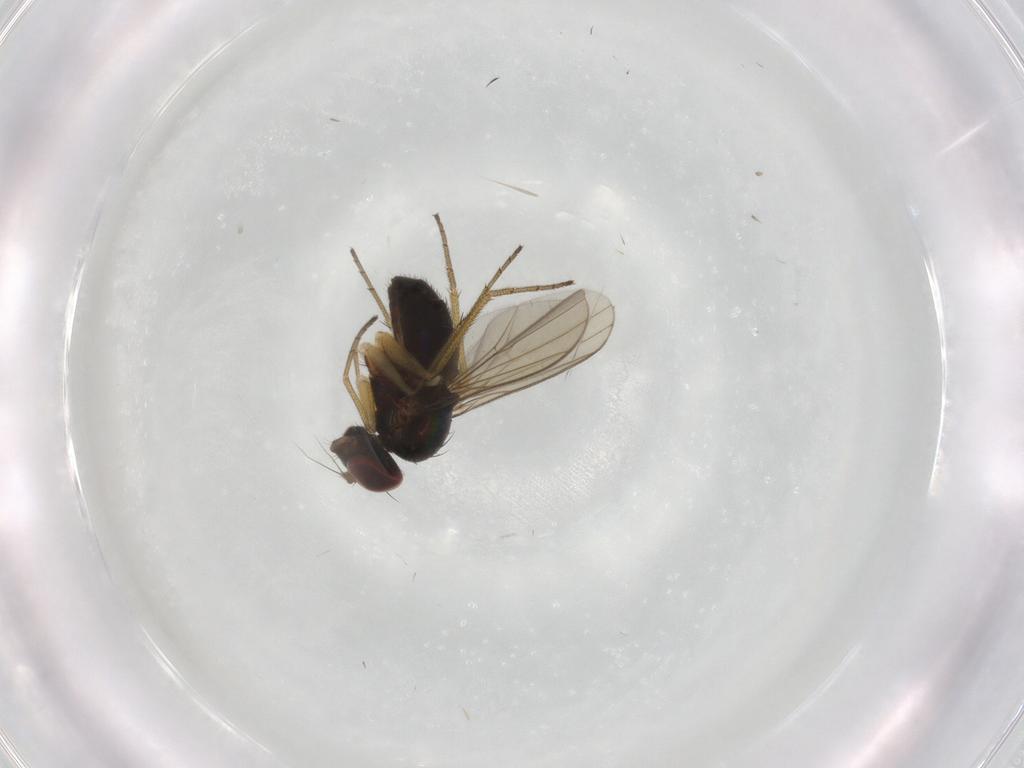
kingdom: Animalia
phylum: Arthropoda
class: Insecta
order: Diptera
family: Dolichopodidae
